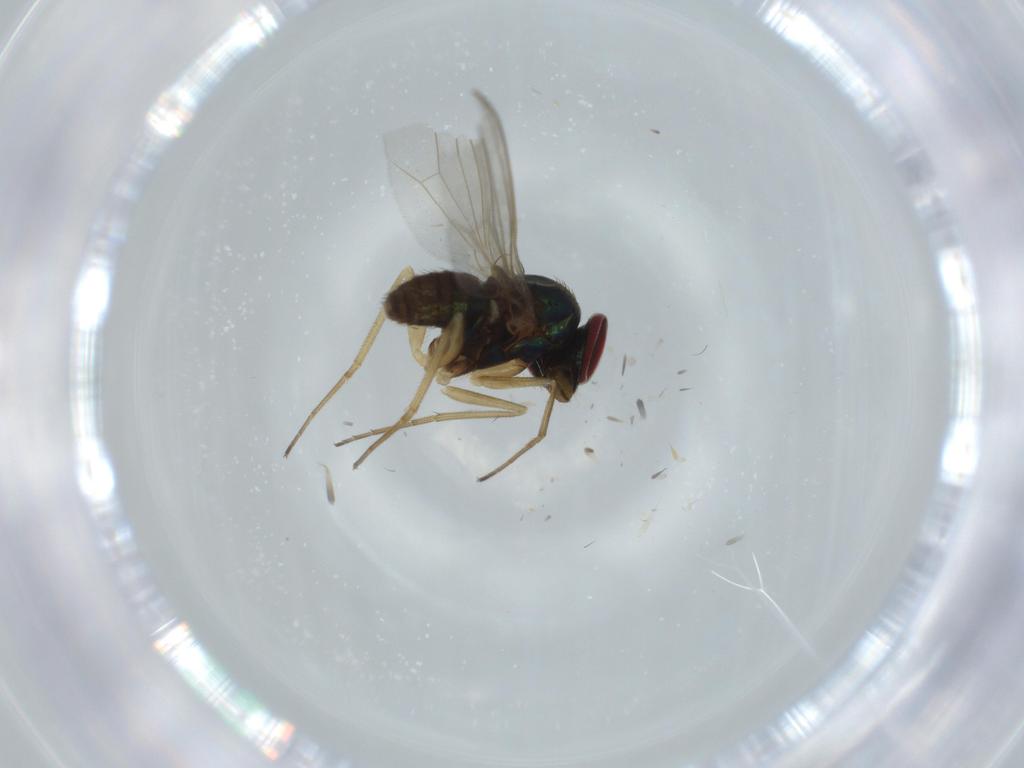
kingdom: Animalia
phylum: Arthropoda
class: Insecta
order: Diptera
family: Dolichopodidae
